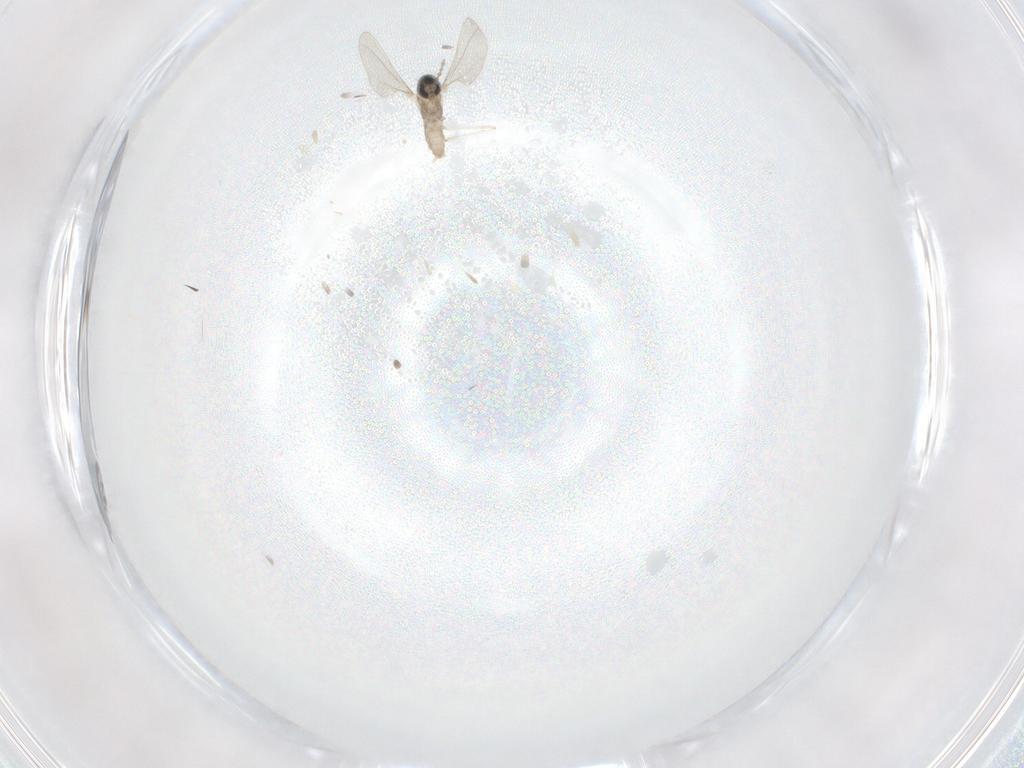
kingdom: Animalia
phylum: Arthropoda
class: Insecta
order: Diptera
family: Cecidomyiidae
